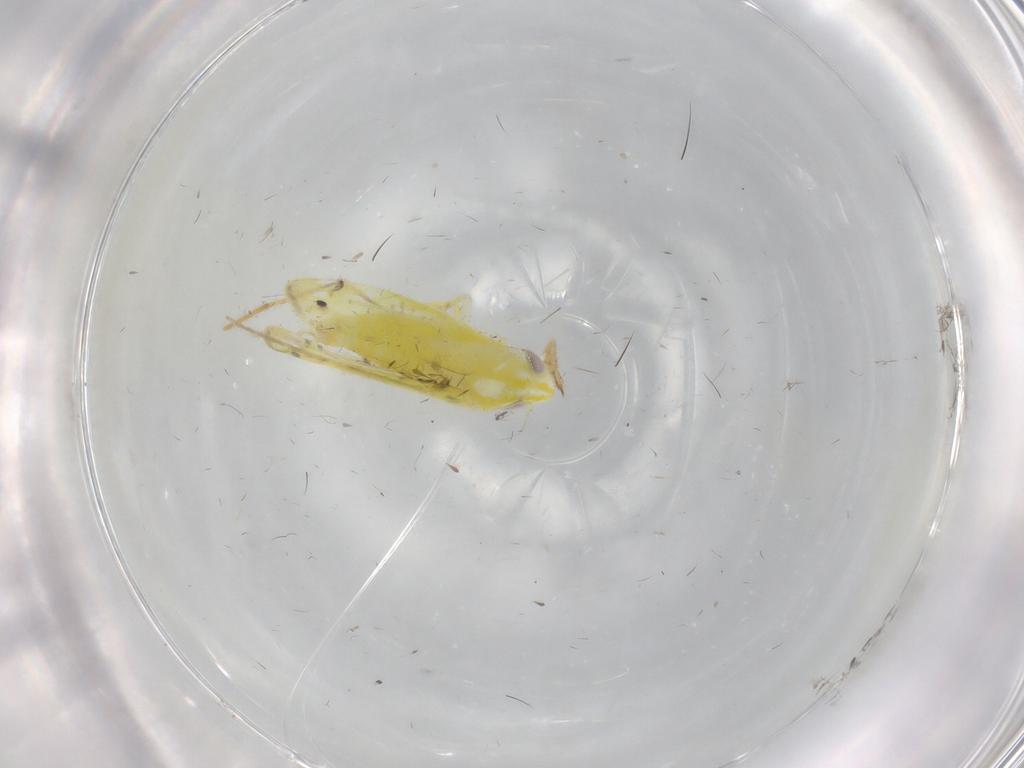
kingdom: Animalia
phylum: Arthropoda
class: Insecta
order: Hemiptera
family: Cicadellidae
